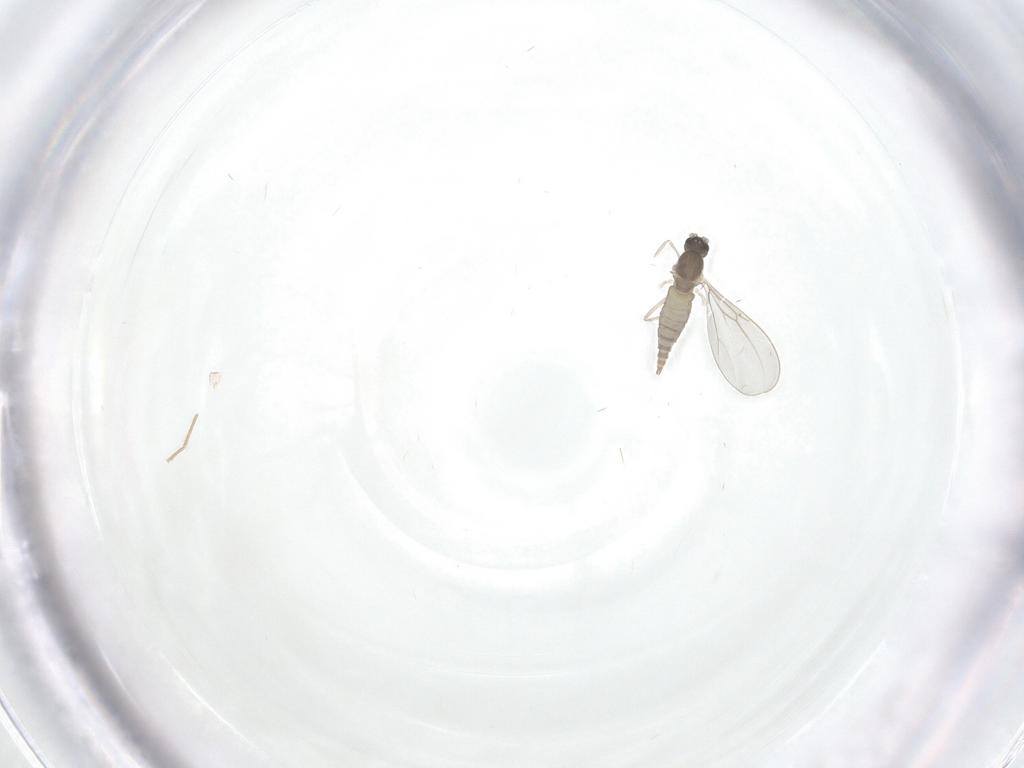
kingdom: Animalia
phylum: Arthropoda
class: Insecta
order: Diptera
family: Cecidomyiidae
